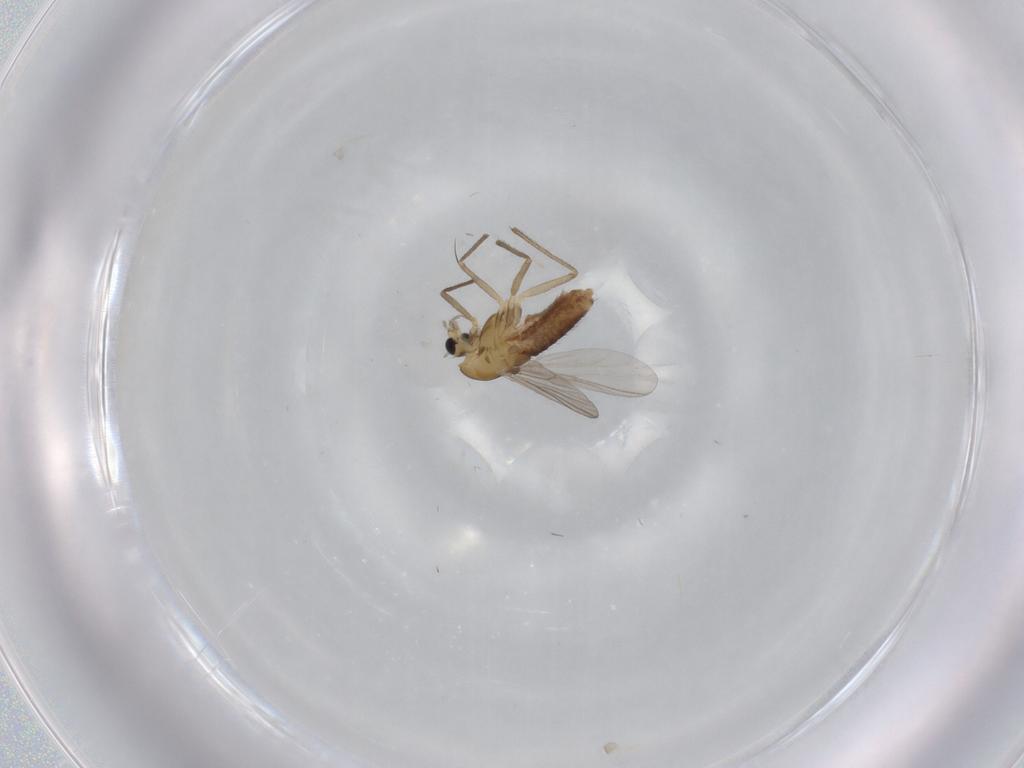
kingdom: Animalia
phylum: Arthropoda
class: Insecta
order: Diptera
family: Chironomidae
